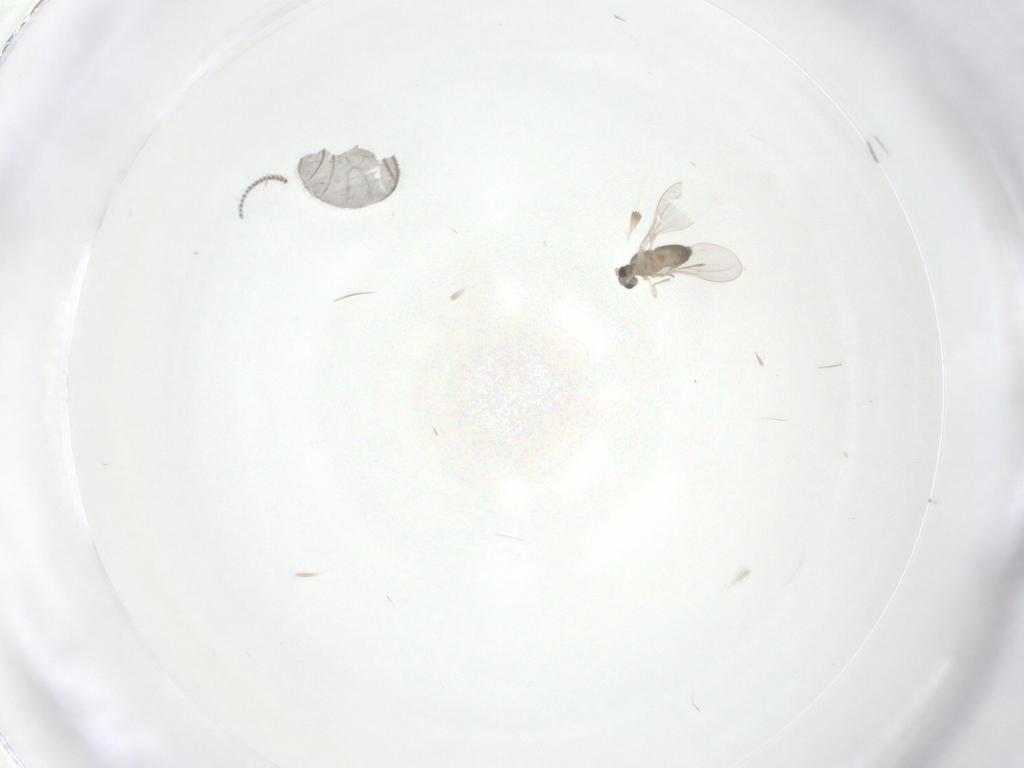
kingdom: Animalia
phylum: Arthropoda
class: Insecta
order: Diptera
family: Cecidomyiidae
